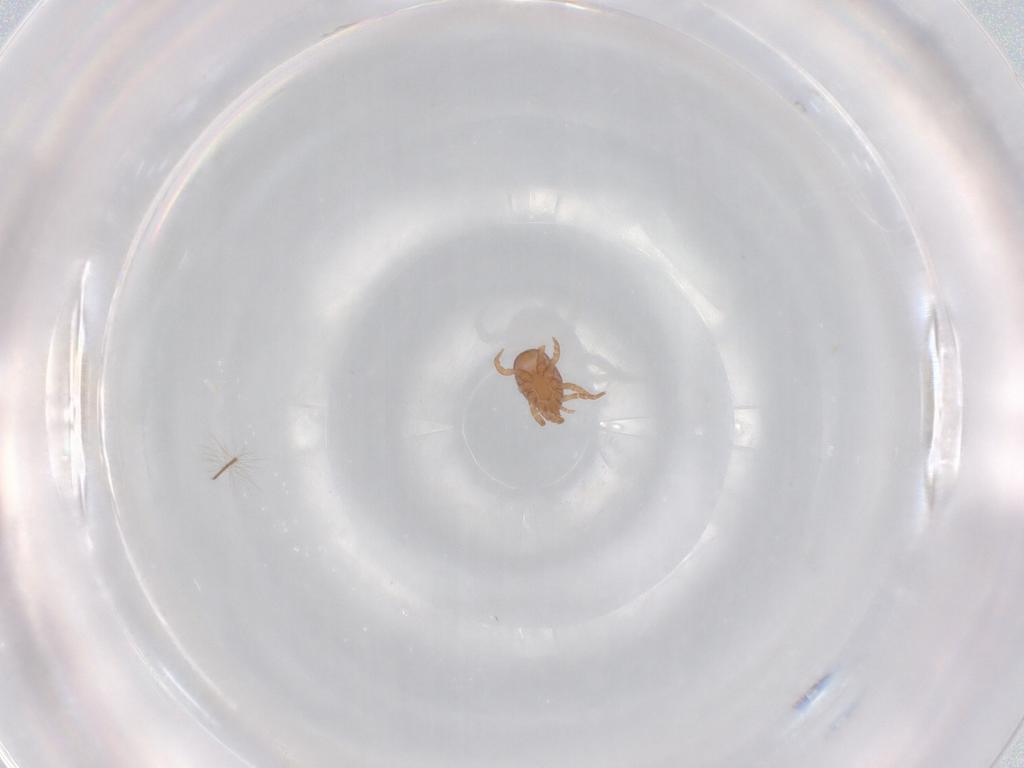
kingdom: Animalia
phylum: Arthropoda
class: Arachnida
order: Mesostigmata
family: Eviphididae
